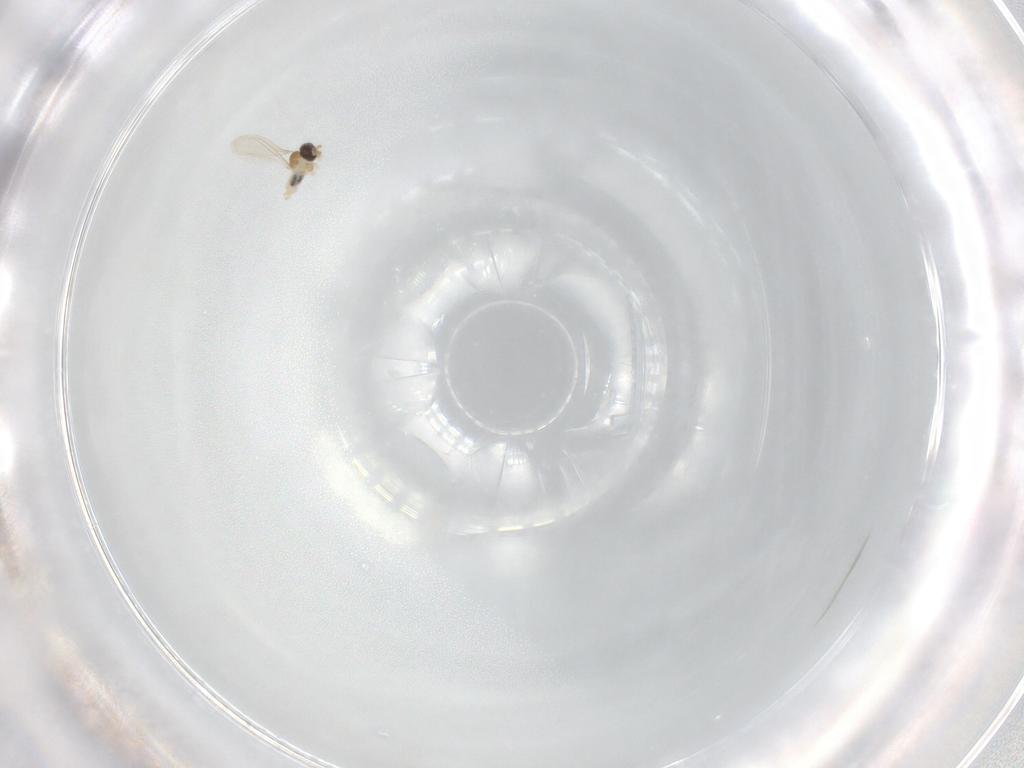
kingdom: Animalia
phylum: Arthropoda
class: Insecta
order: Diptera
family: Cecidomyiidae
